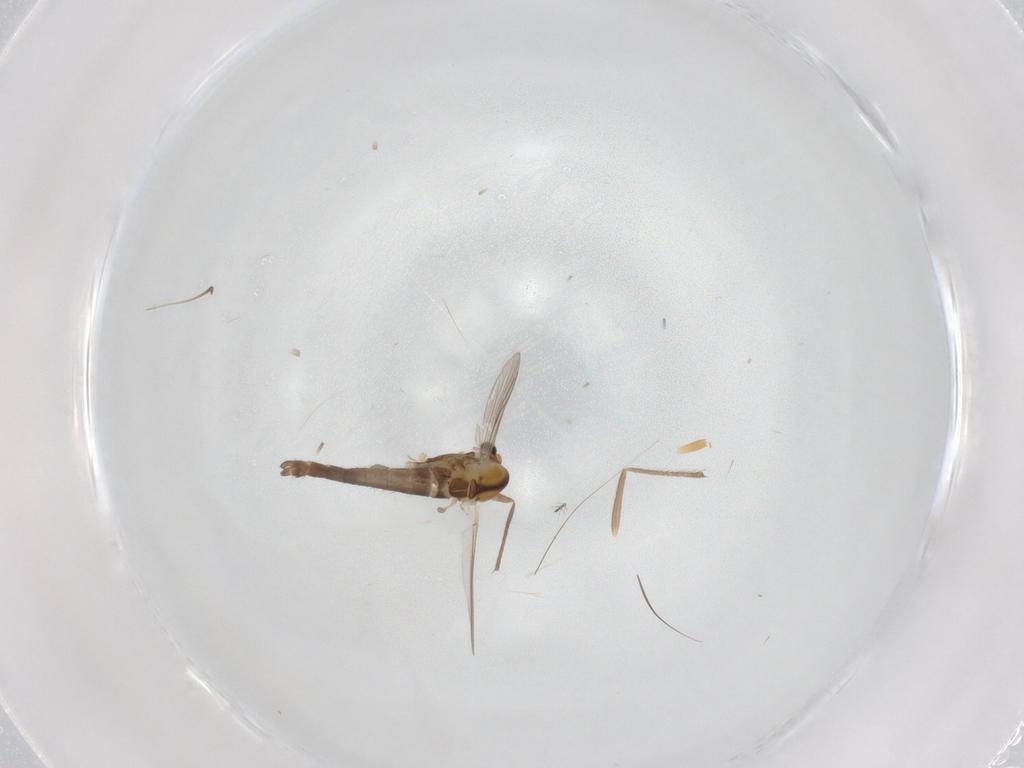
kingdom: Animalia
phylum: Arthropoda
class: Insecta
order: Diptera
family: Chironomidae
